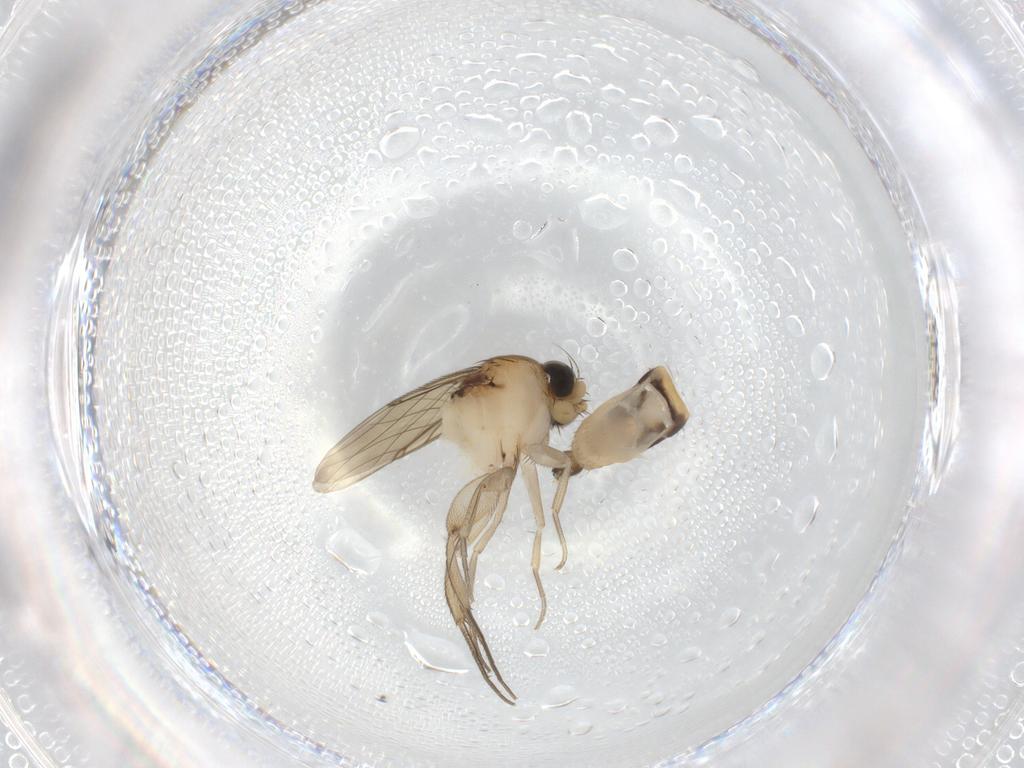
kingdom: Animalia
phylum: Arthropoda
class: Insecta
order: Diptera
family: Phoridae
